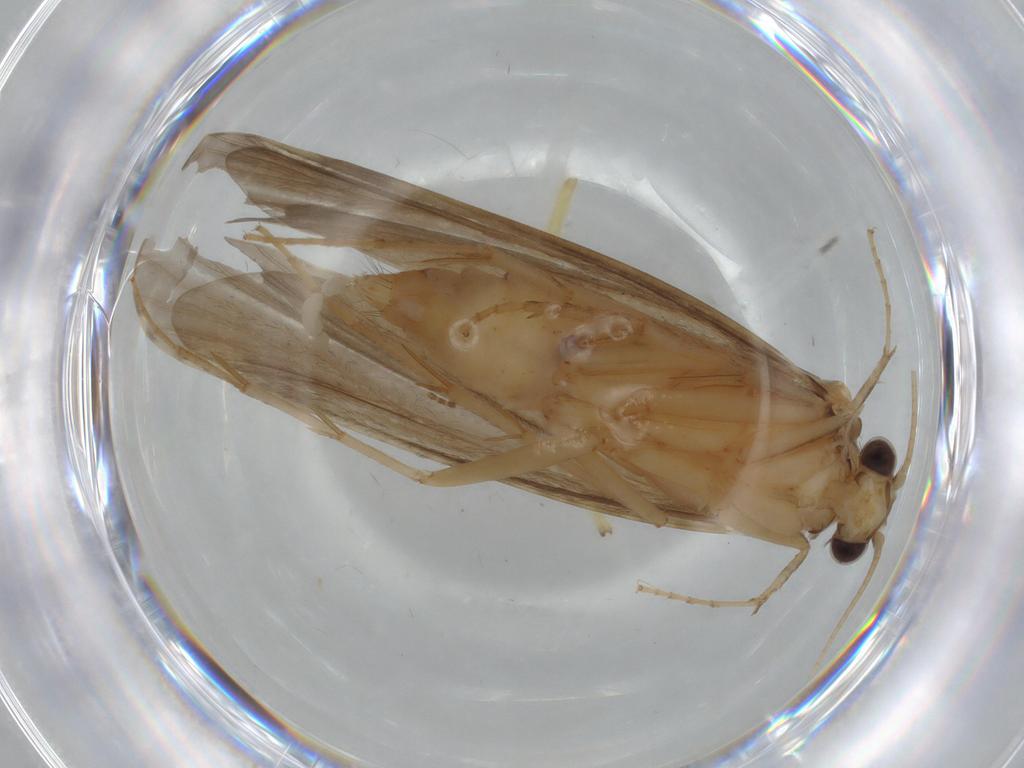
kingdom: Animalia
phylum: Arthropoda
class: Insecta
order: Trichoptera
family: Ecnomidae
